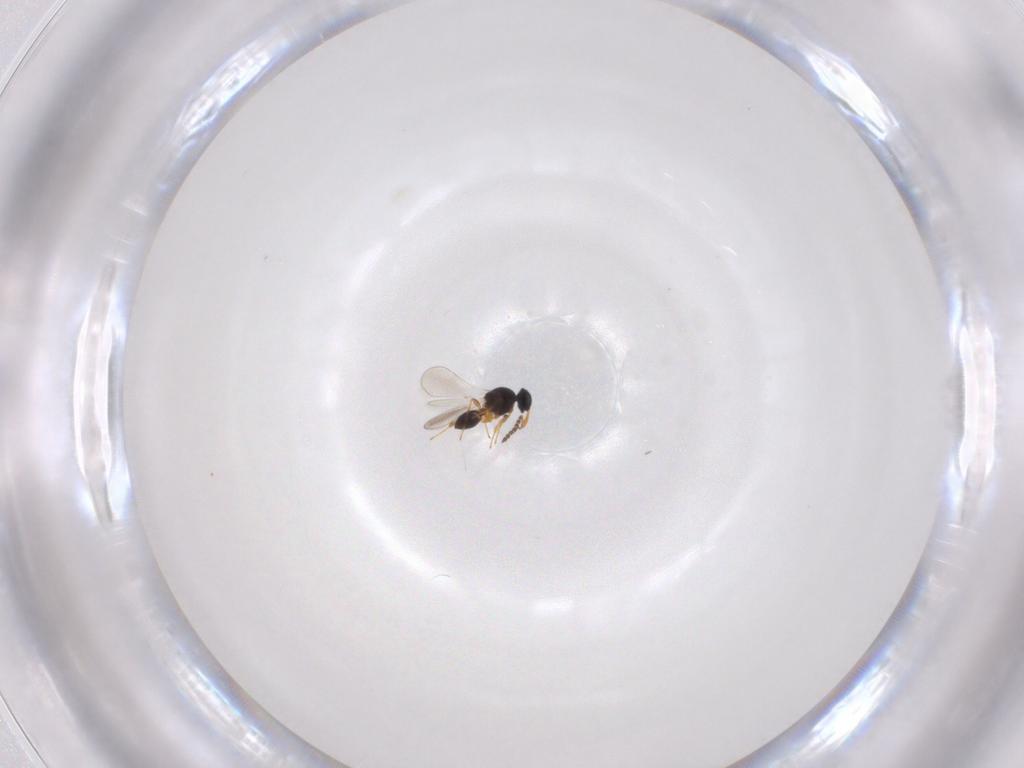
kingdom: Animalia
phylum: Arthropoda
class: Insecta
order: Hymenoptera
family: Platygastridae
